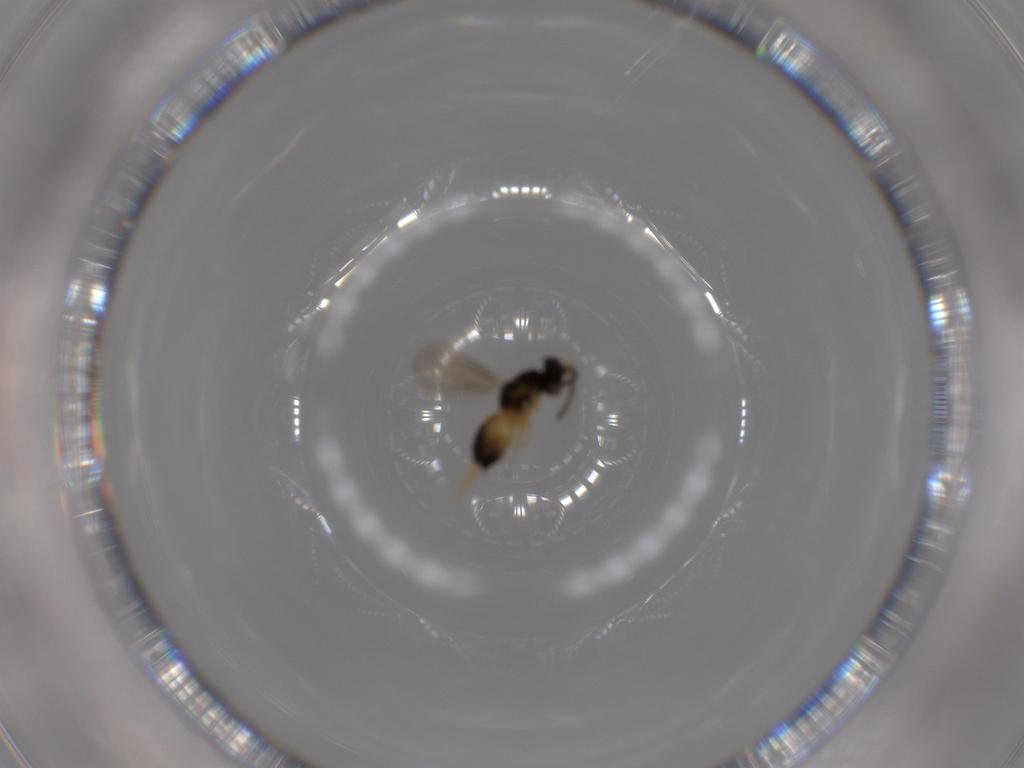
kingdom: Animalia
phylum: Arthropoda
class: Insecta
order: Hymenoptera
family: Eulophidae
